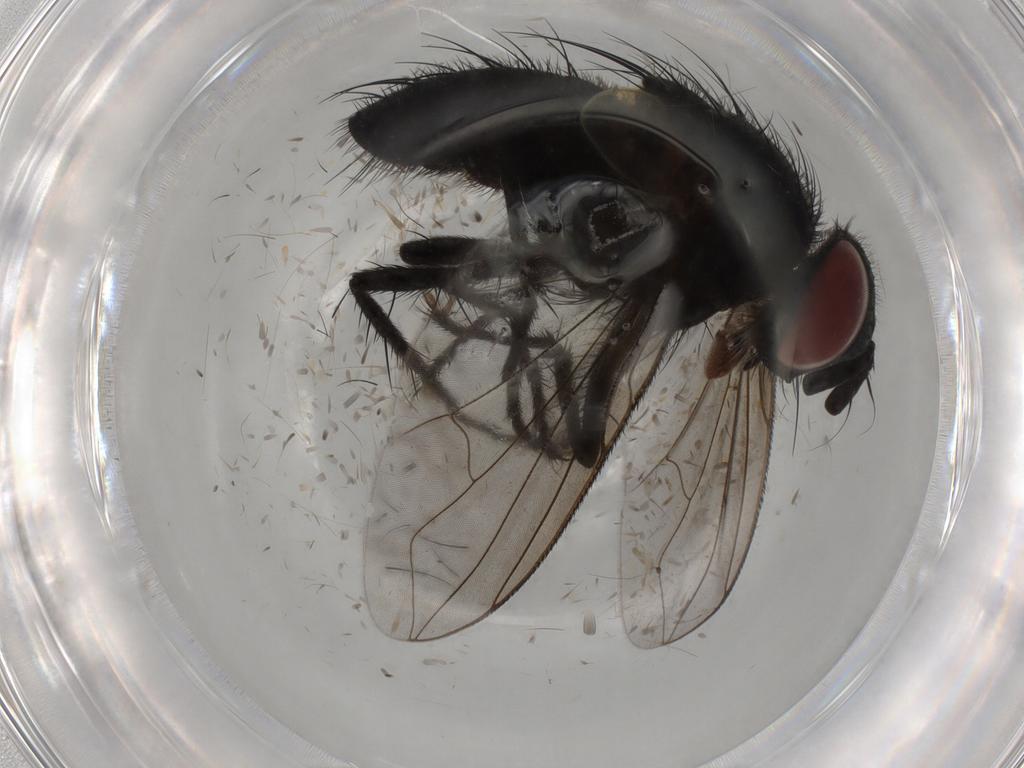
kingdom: Animalia
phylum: Arthropoda
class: Insecta
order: Diptera
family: Tachinidae
